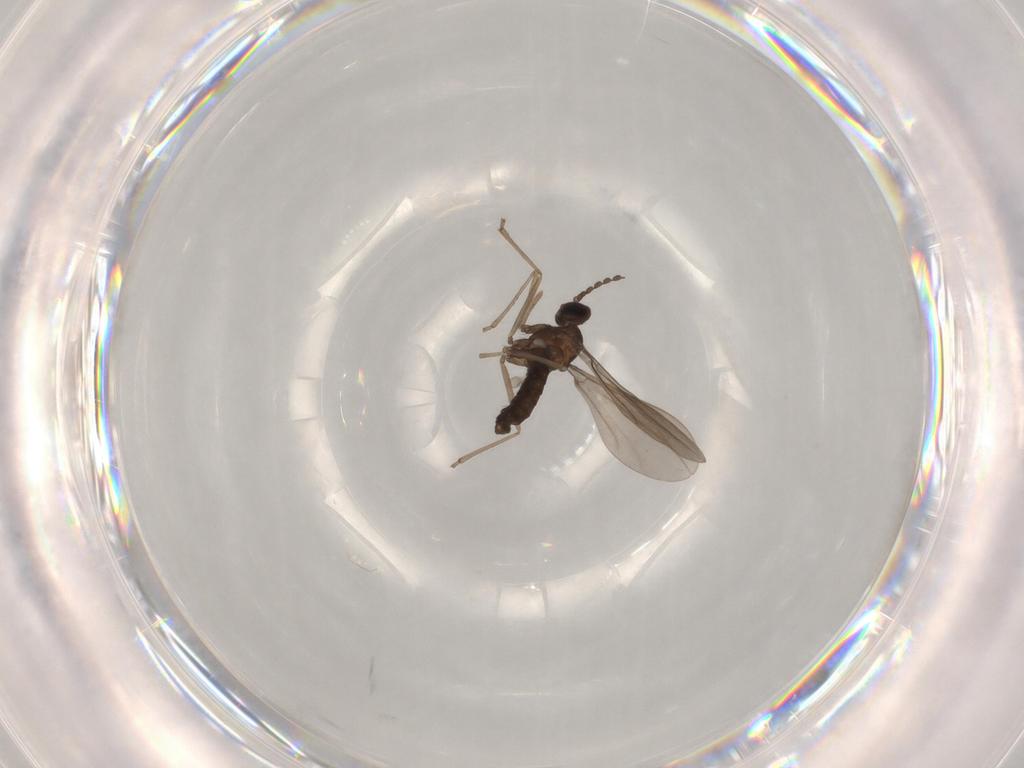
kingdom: Animalia
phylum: Arthropoda
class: Insecta
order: Diptera
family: Cecidomyiidae
